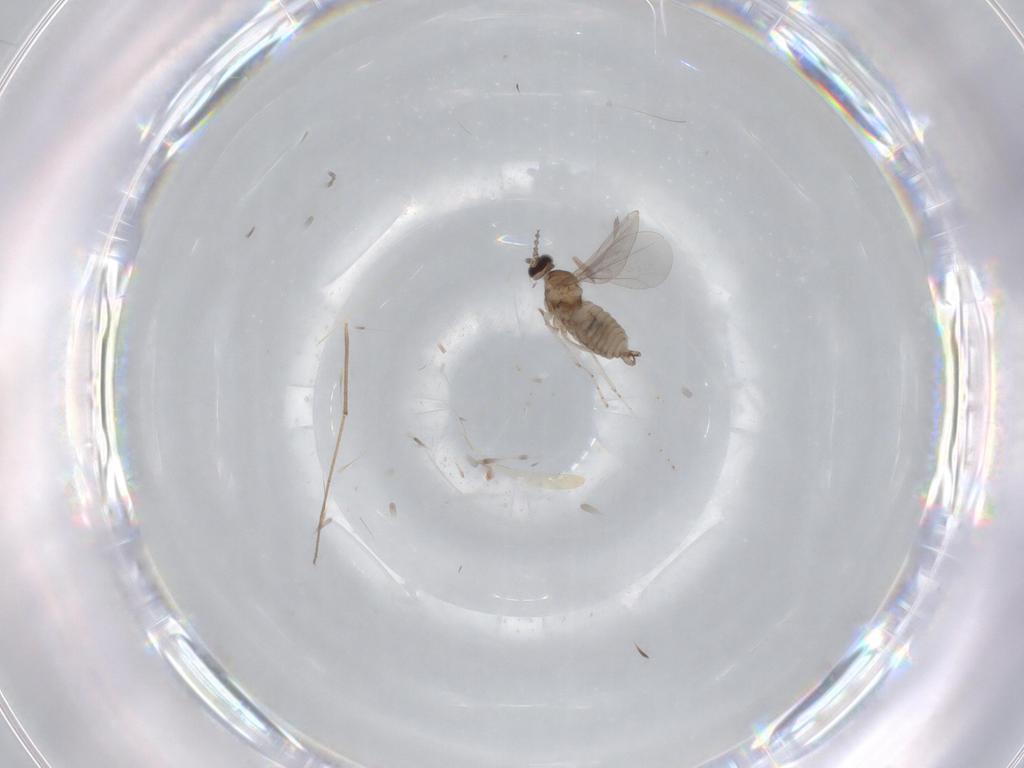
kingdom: Animalia
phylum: Arthropoda
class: Insecta
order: Diptera
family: Cecidomyiidae
